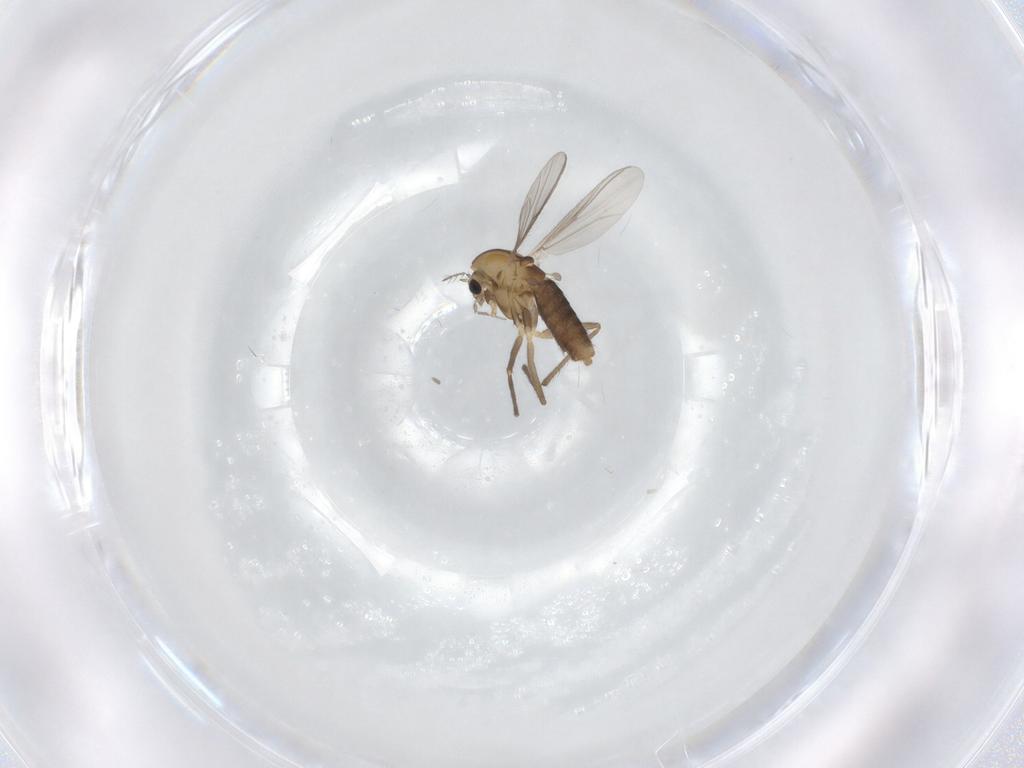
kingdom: Animalia
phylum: Arthropoda
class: Insecta
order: Diptera
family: Chironomidae
